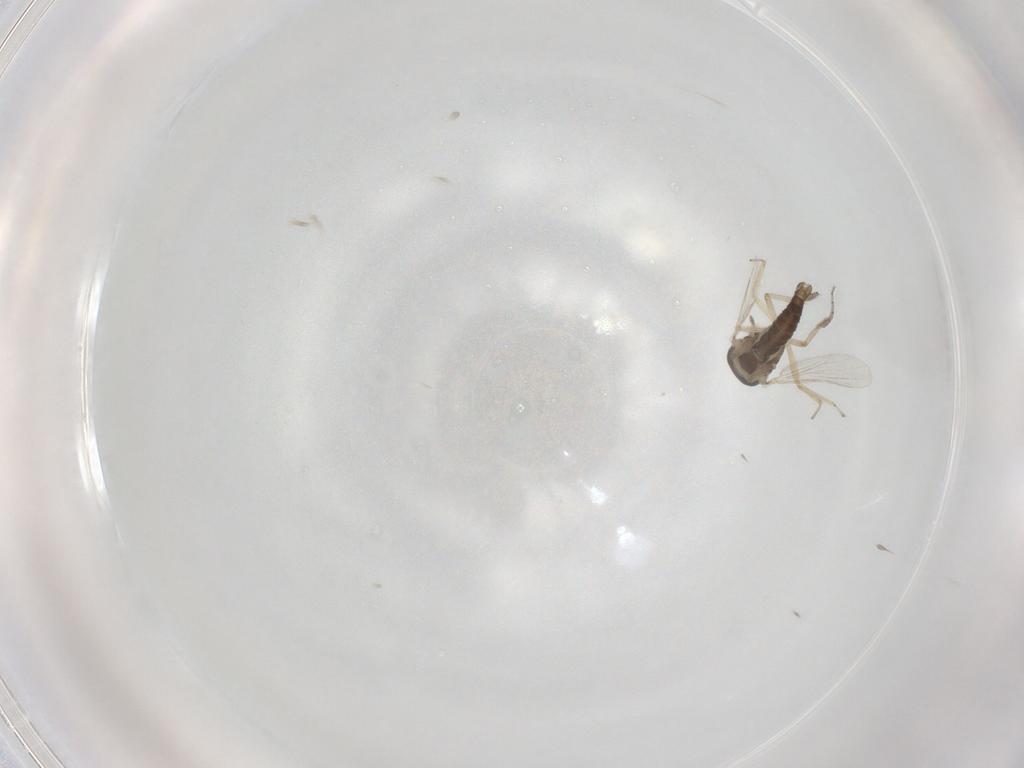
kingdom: Animalia
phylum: Arthropoda
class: Insecta
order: Diptera
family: Ceratopogonidae
